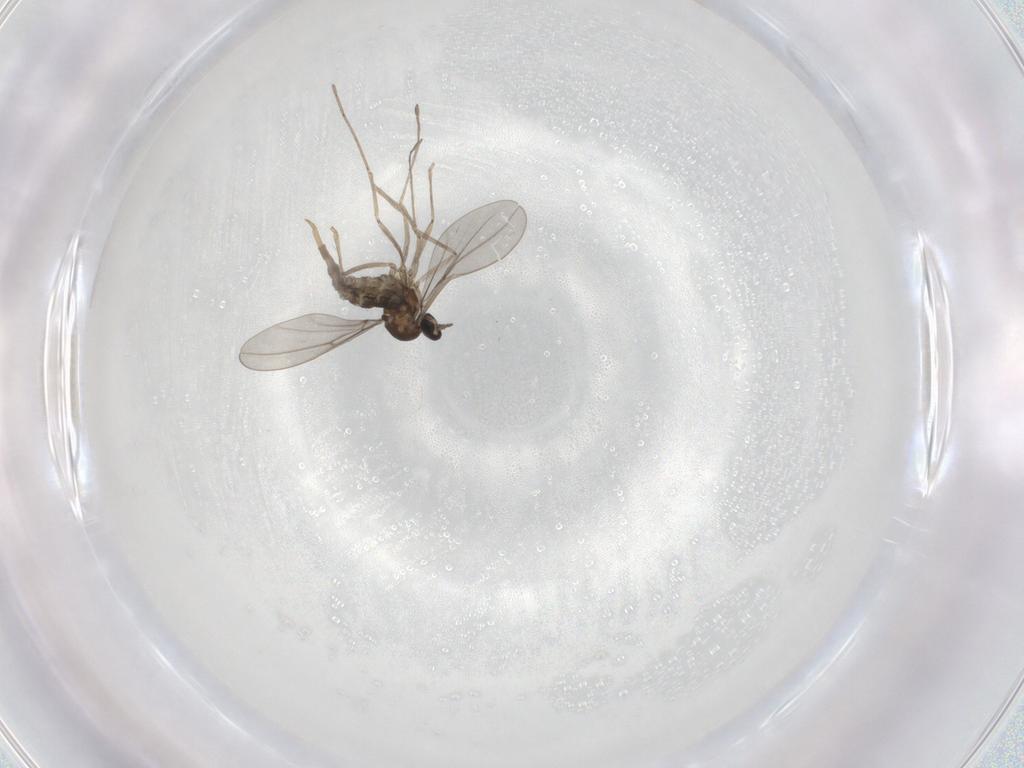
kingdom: Animalia
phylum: Arthropoda
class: Insecta
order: Diptera
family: Cecidomyiidae
